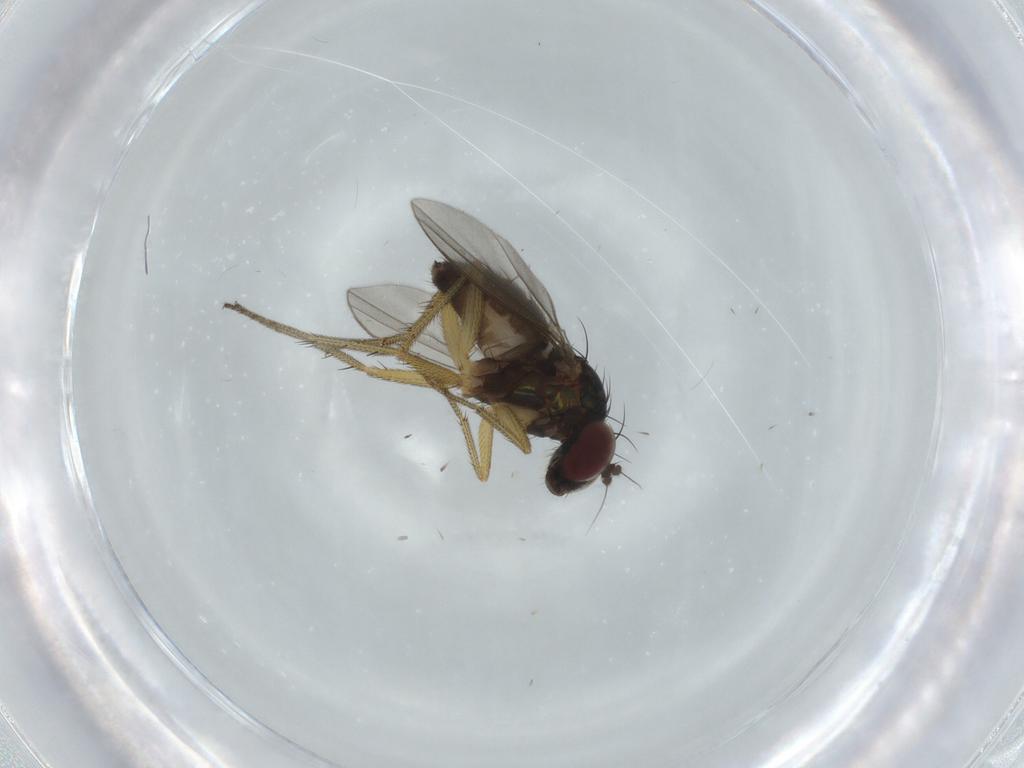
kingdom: Animalia
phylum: Arthropoda
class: Insecta
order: Diptera
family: Dolichopodidae
